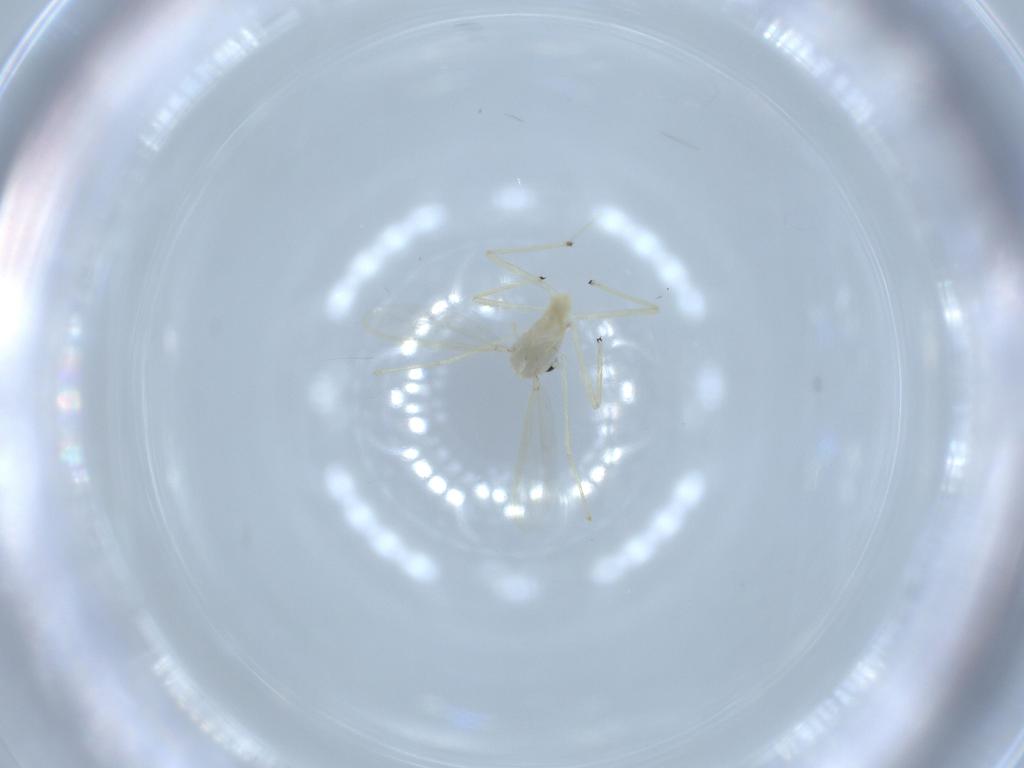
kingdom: Animalia
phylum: Arthropoda
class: Insecta
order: Diptera
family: Chironomidae
